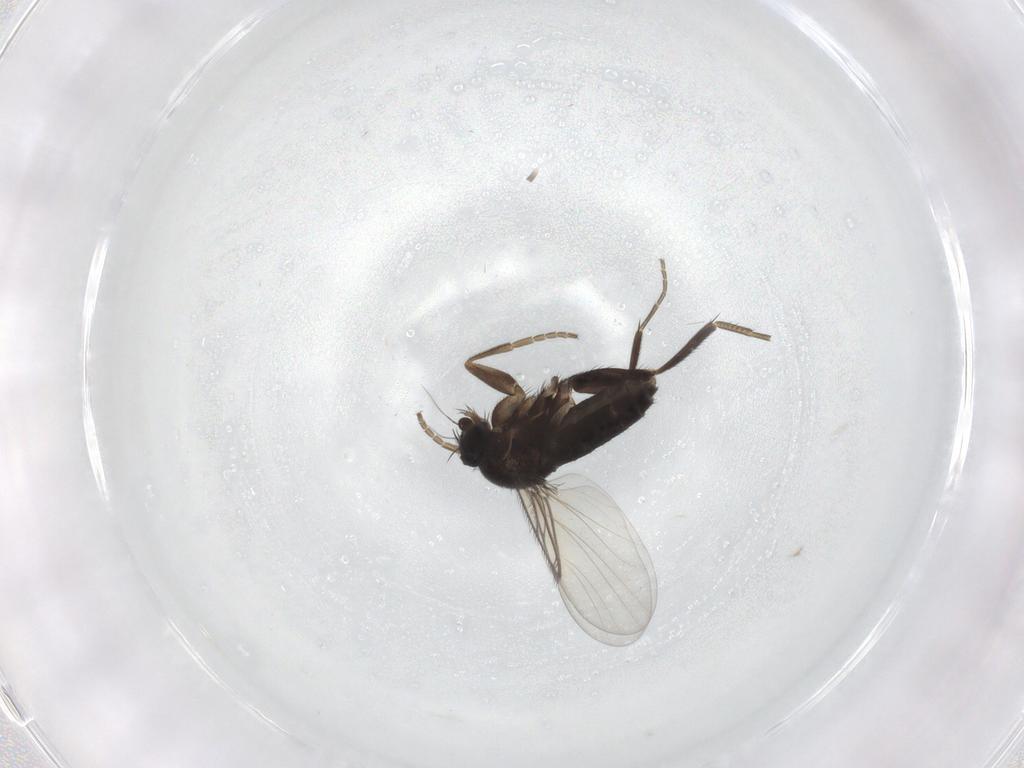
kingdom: Animalia
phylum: Arthropoda
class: Insecta
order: Diptera
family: Phoridae
